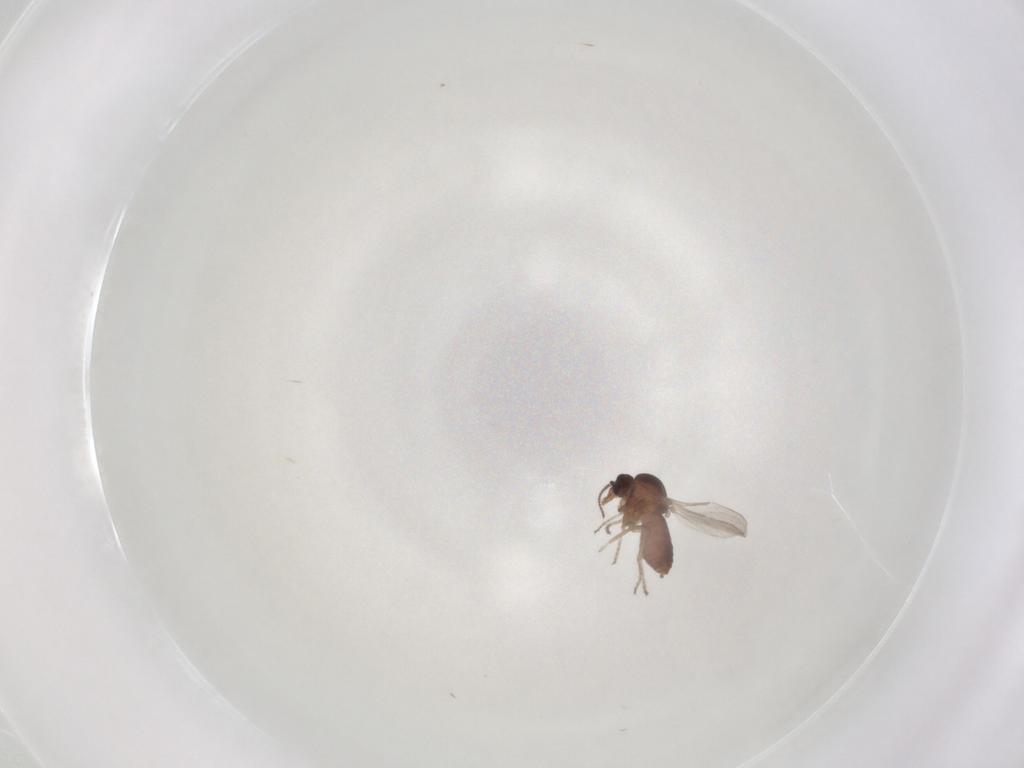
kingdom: Animalia
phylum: Arthropoda
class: Insecta
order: Diptera
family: Ceratopogonidae
